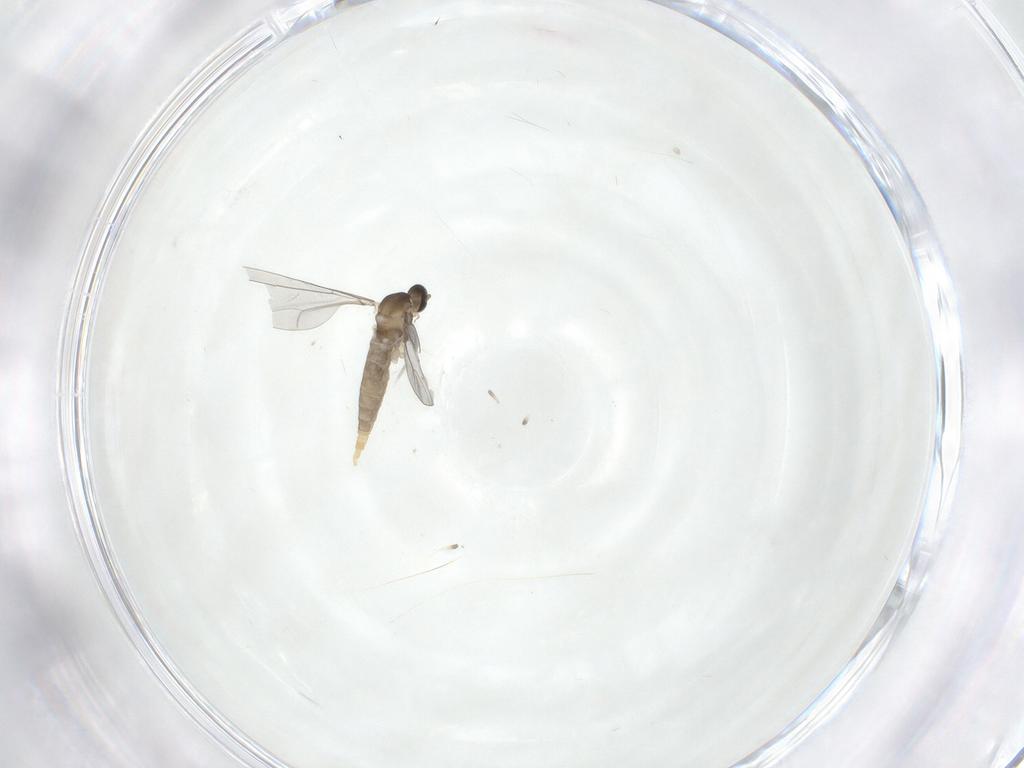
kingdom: Animalia
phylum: Arthropoda
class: Insecta
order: Diptera
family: Cecidomyiidae
